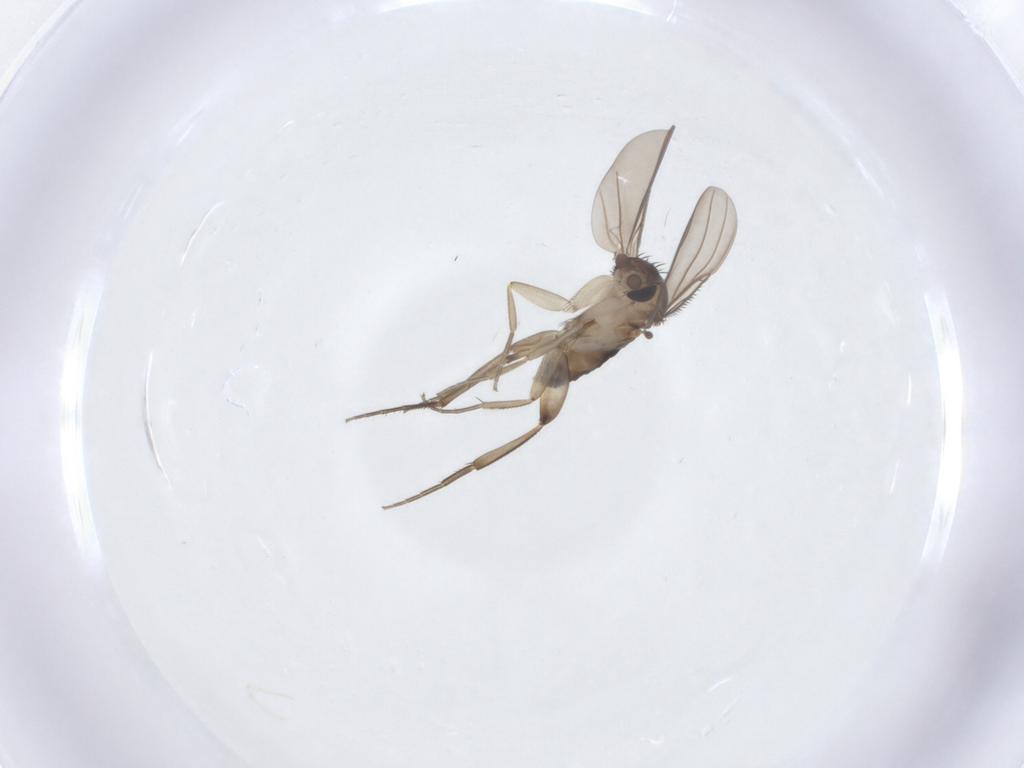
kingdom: Animalia
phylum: Arthropoda
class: Insecta
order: Diptera
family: Phoridae
